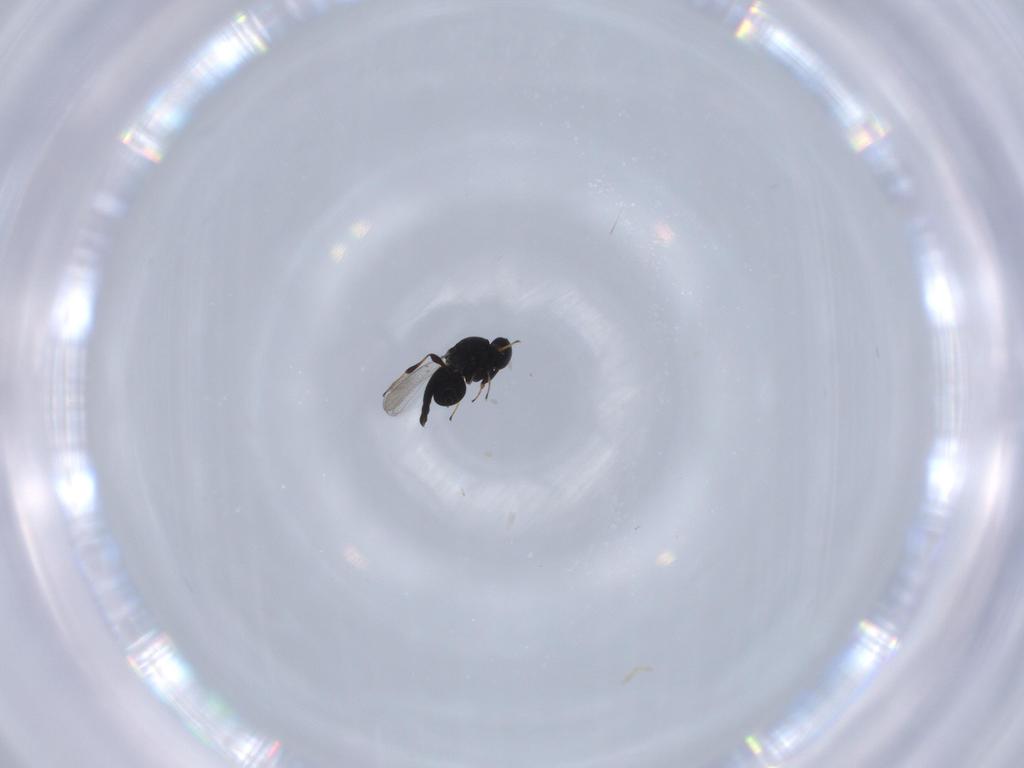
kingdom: Animalia
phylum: Arthropoda
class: Insecta
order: Hymenoptera
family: Platygastridae
